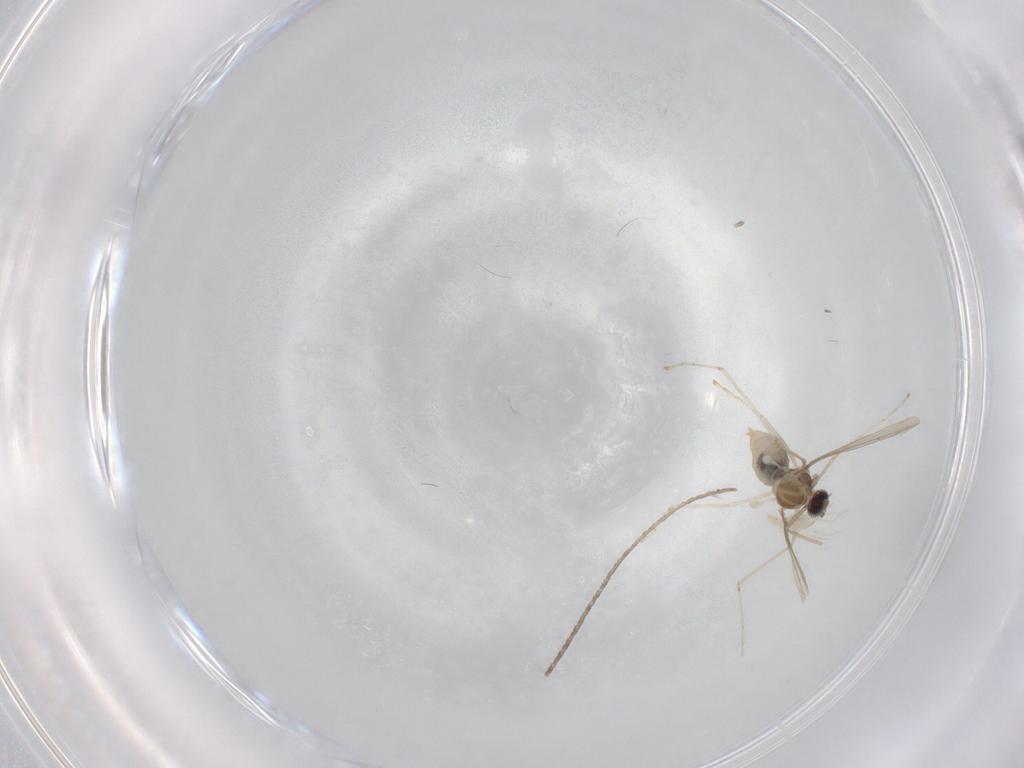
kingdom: Animalia
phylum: Arthropoda
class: Insecta
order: Diptera
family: Cecidomyiidae
